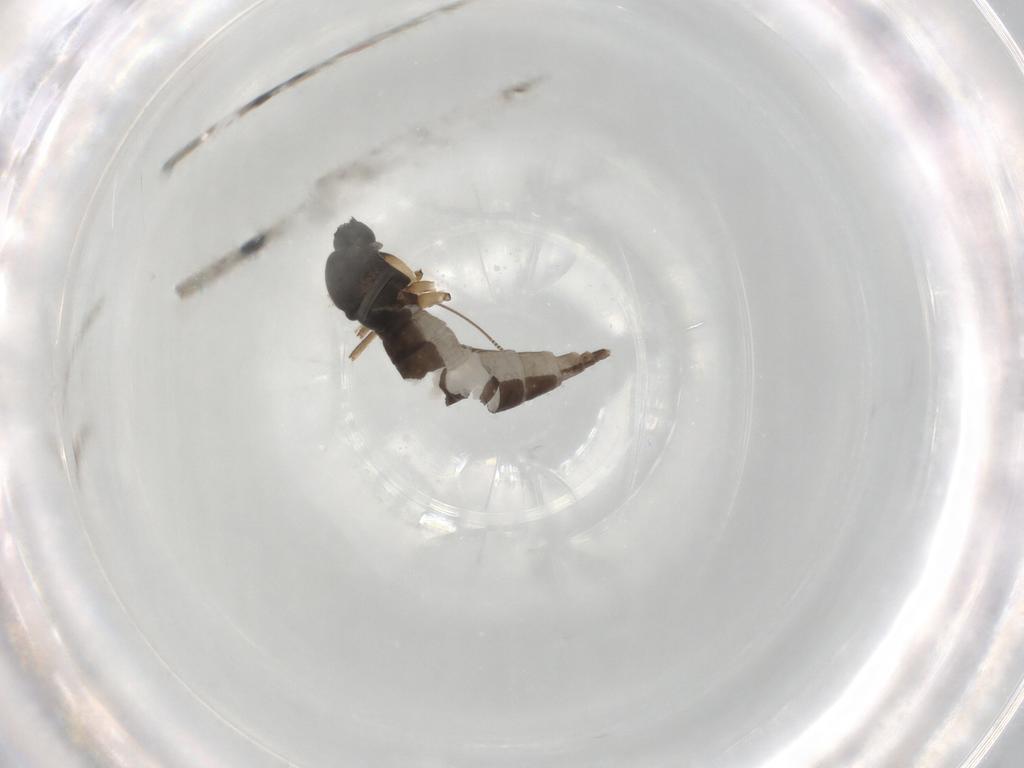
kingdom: Animalia
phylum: Arthropoda
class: Insecta
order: Diptera
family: Sciaridae
